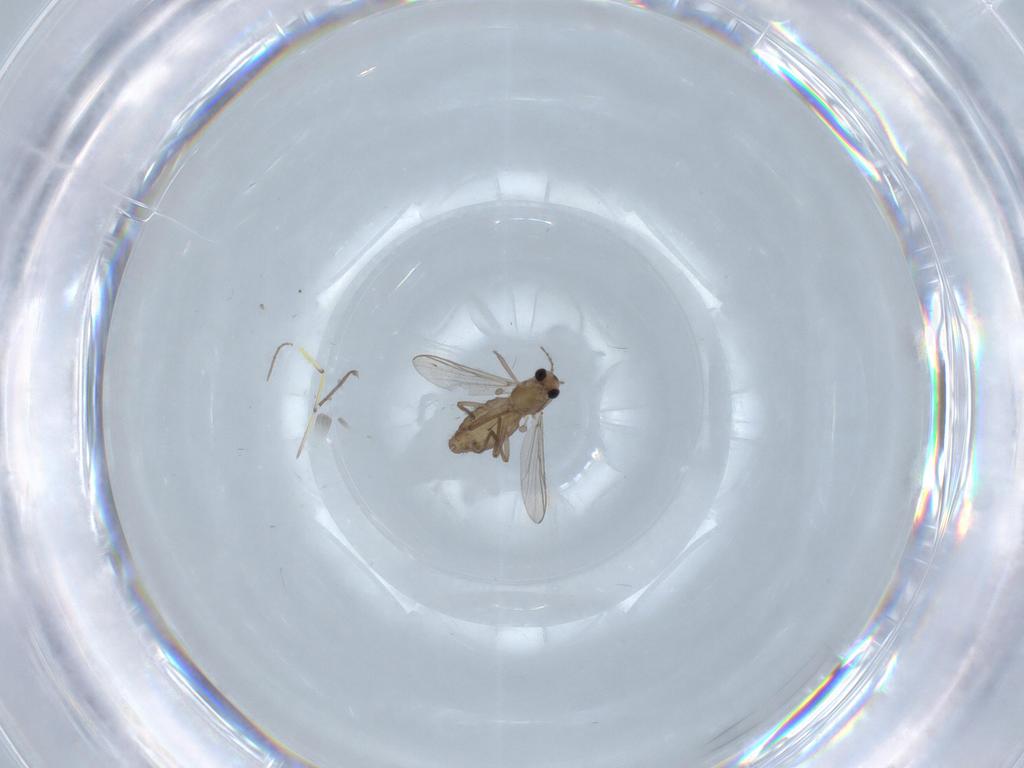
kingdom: Animalia
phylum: Arthropoda
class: Insecta
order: Diptera
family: Chironomidae
